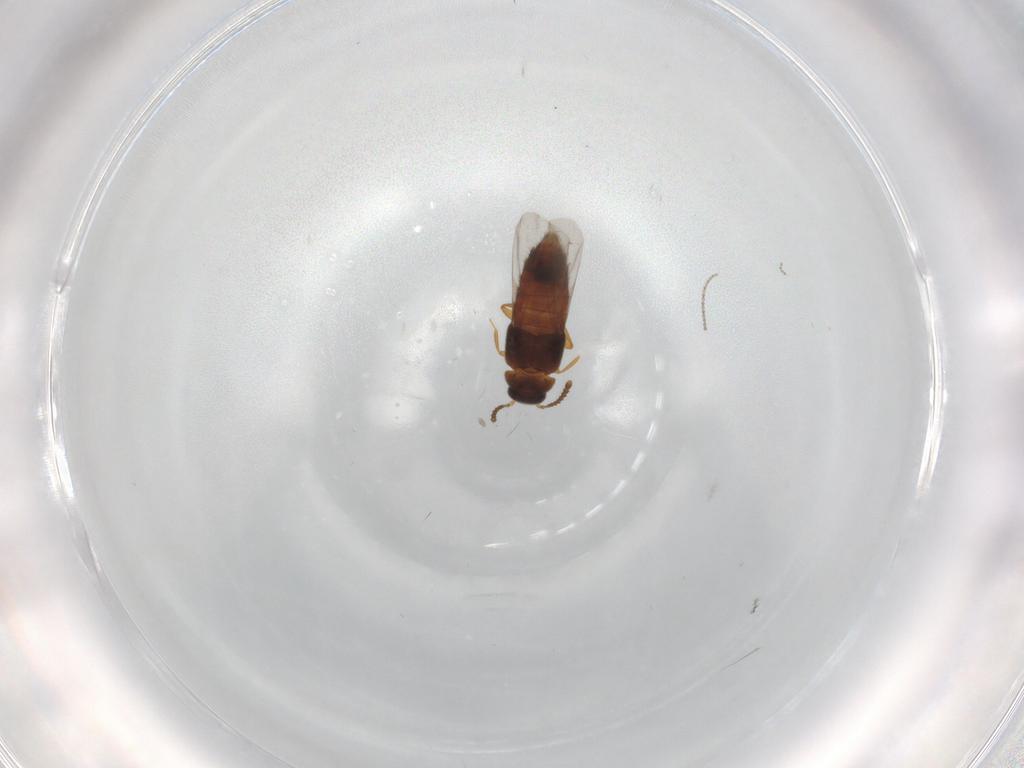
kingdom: Animalia
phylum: Arthropoda
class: Insecta
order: Coleoptera
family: Staphylinidae
